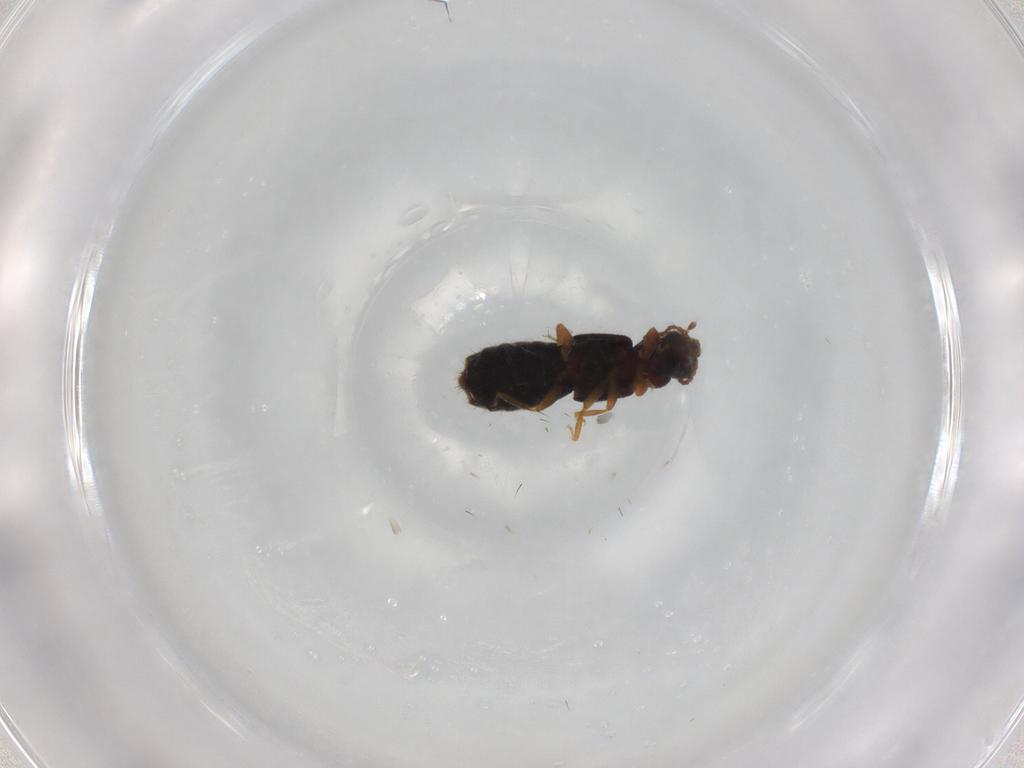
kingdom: Animalia
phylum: Arthropoda
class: Insecta
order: Coleoptera
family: Staphylinidae
